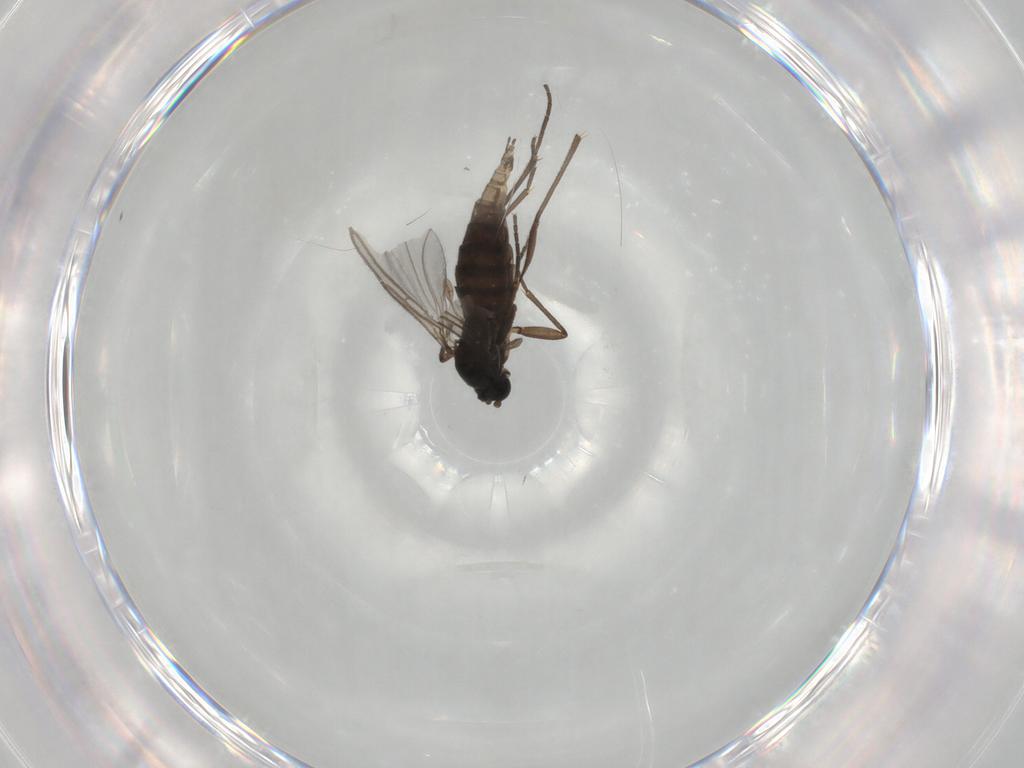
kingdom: Animalia
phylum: Arthropoda
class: Insecta
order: Diptera
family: Sciaridae
